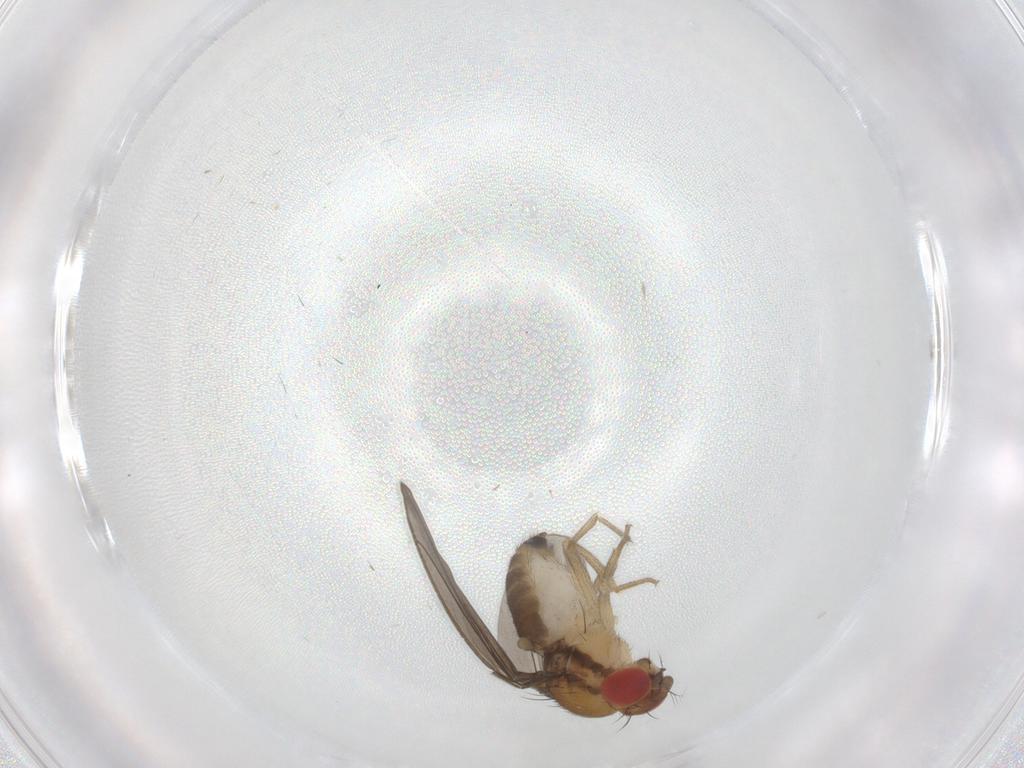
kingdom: Animalia
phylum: Arthropoda
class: Insecta
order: Diptera
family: Drosophilidae
